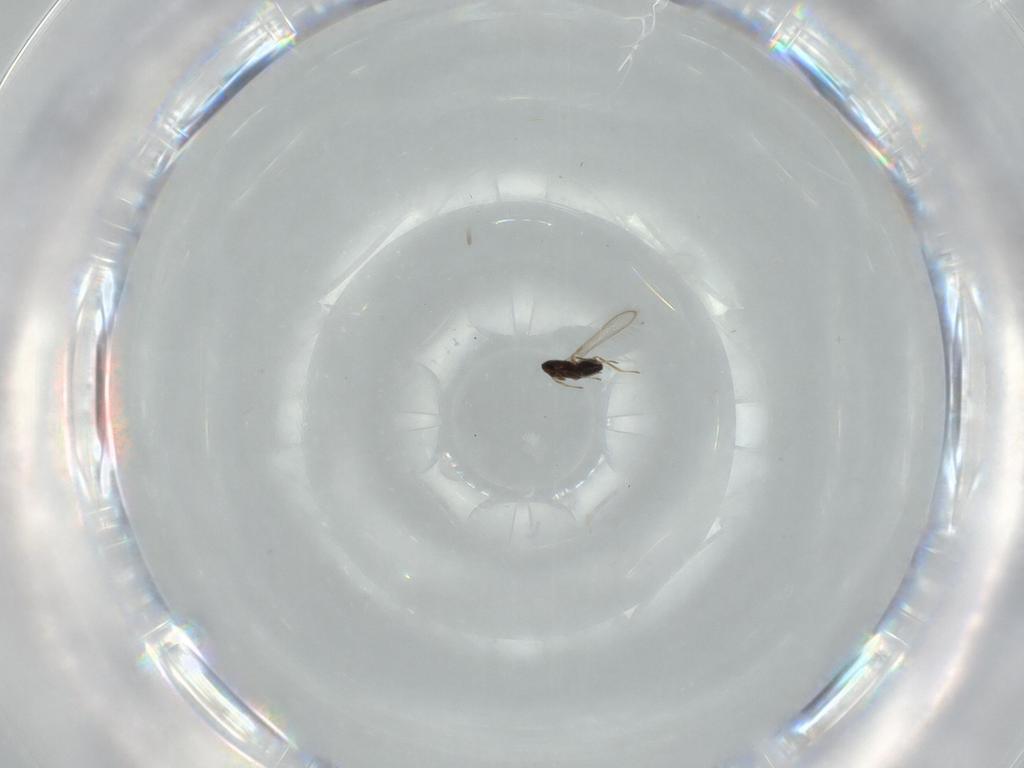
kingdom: Animalia
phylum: Arthropoda
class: Insecta
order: Hymenoptera
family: Mymaridae
